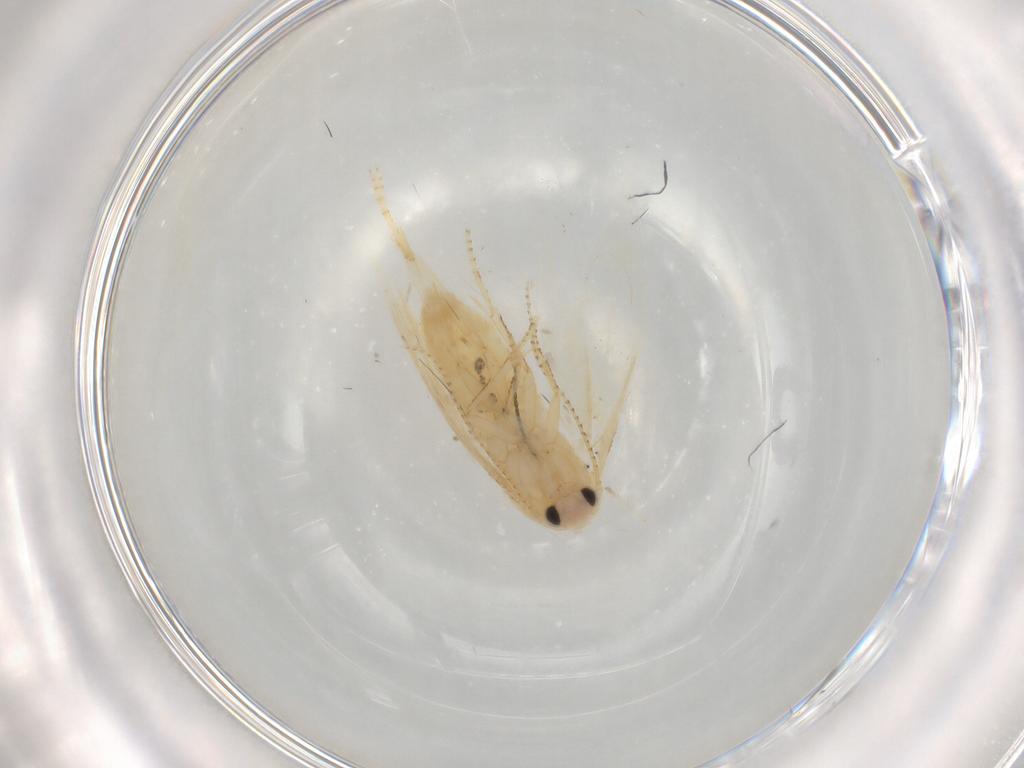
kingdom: Animalia
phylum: Arthropoda
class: Insecta
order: Lepidoptera
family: Bucculatricidae
